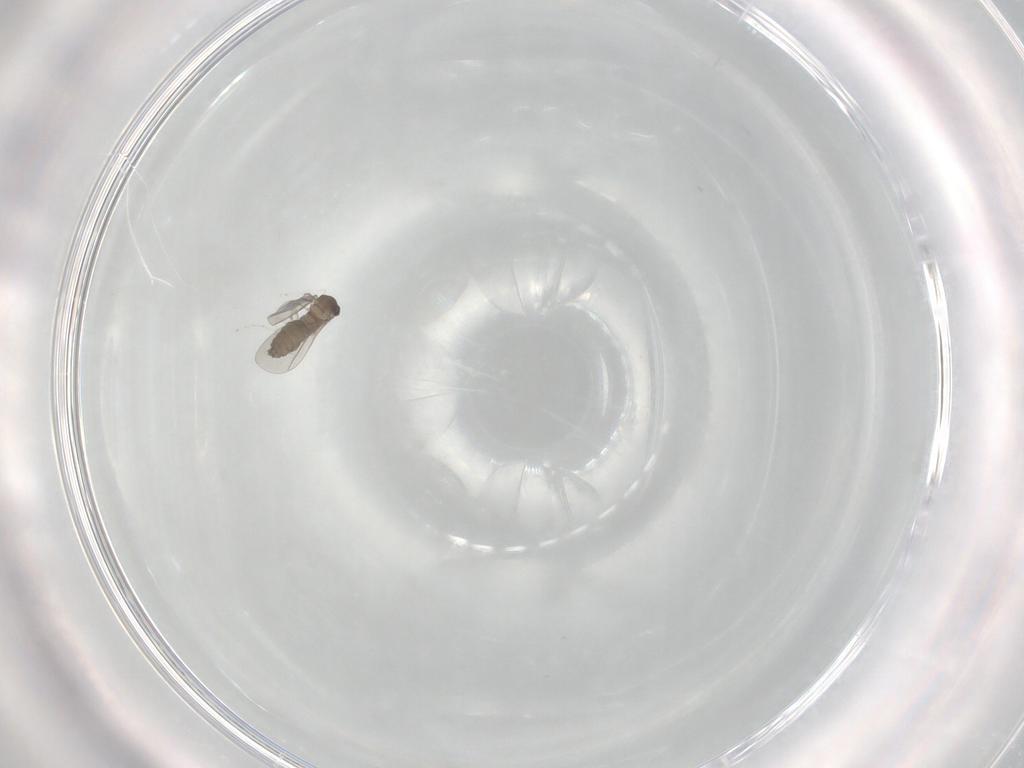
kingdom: Animalia
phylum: Arthropoda
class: Insecta
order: Diptera
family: Cecidomyiidae
